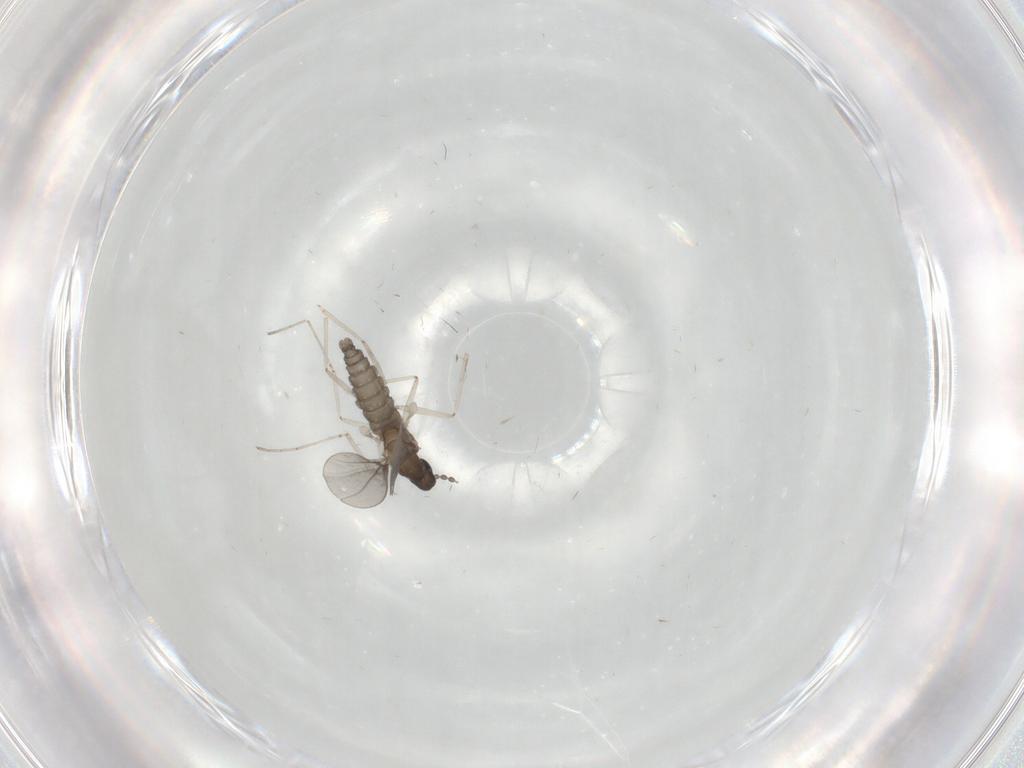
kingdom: Animalia
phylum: Arthropoda
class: Insecta
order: Diptera
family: Cecidomyiidae
